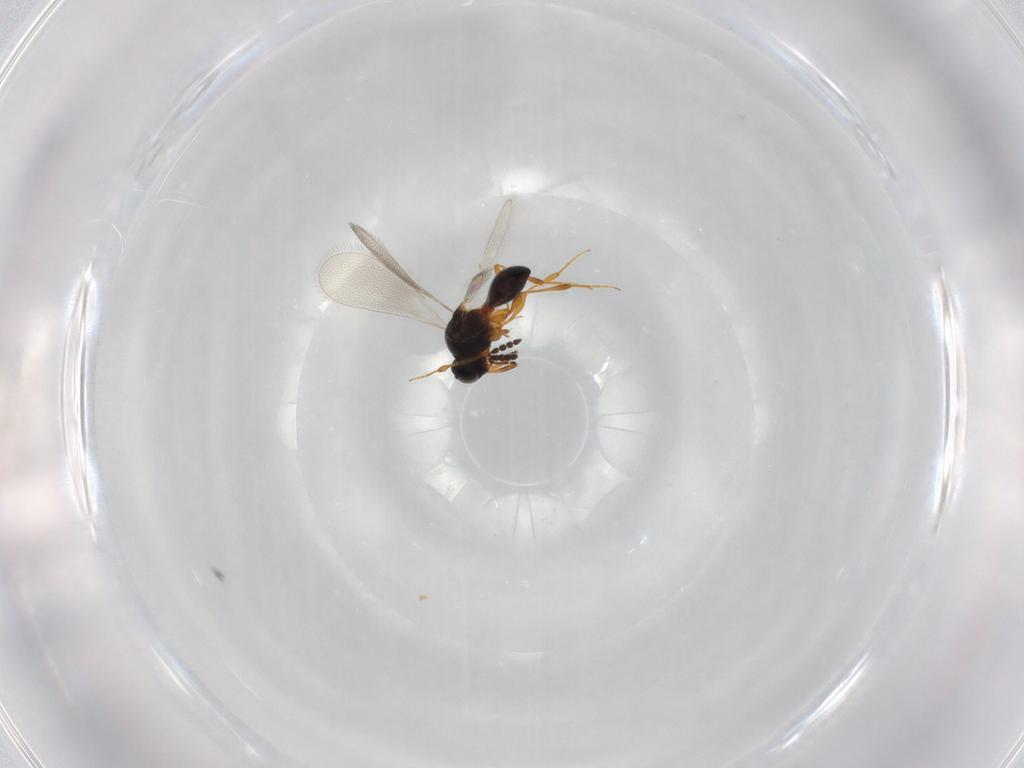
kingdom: Animalia
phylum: Arthropoda
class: Insecta
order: Hymenoptera
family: Platygastridae
